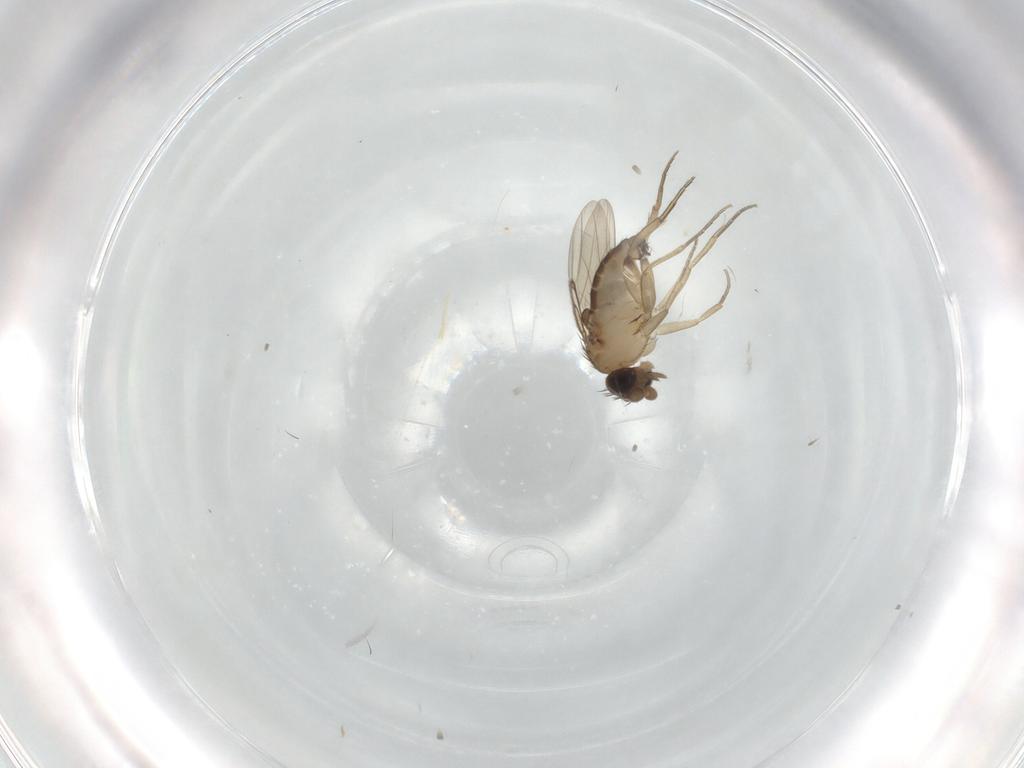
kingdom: Animalia
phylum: Arthropoda
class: Insecta
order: Diptera
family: Phoridae
